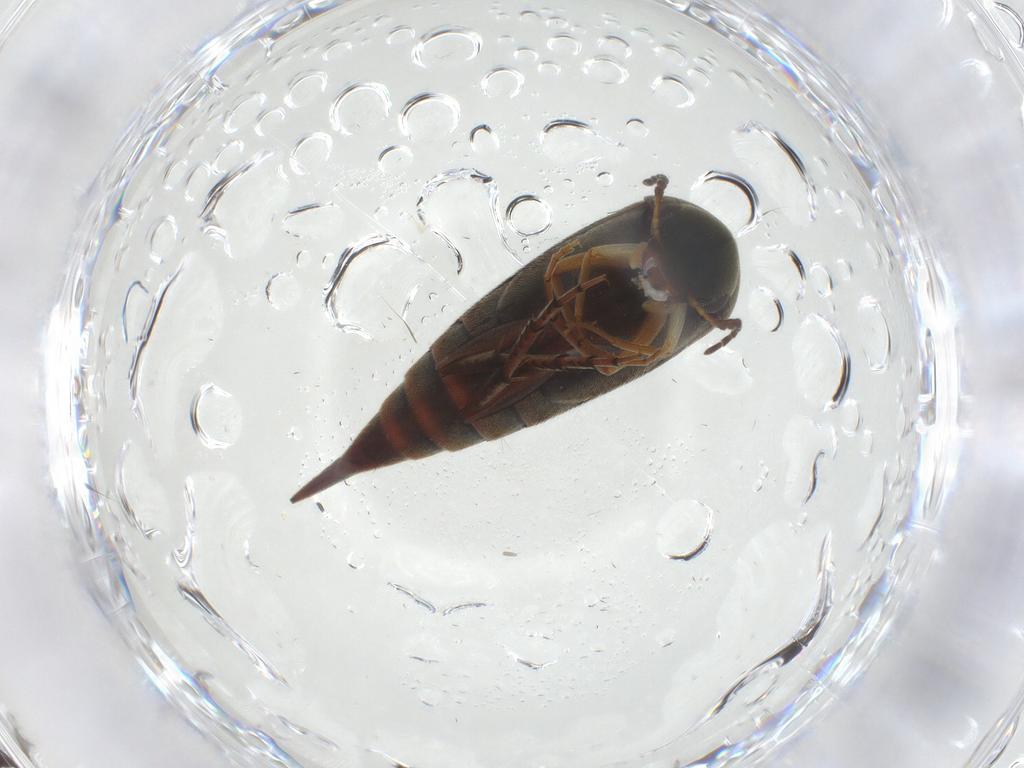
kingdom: Animalia
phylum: Arthropoda
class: Insecta
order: Coleoptera
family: Mordellidae
